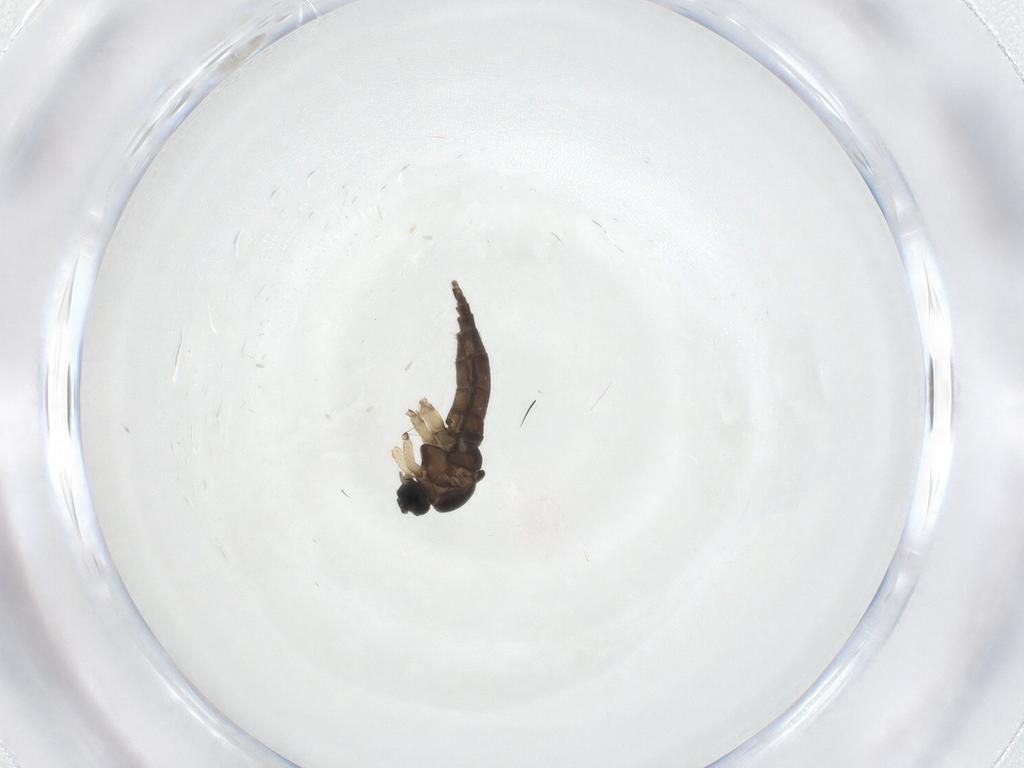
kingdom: Animalia
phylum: Arthropoda
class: Insecta
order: Diptera
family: Sciaridae
